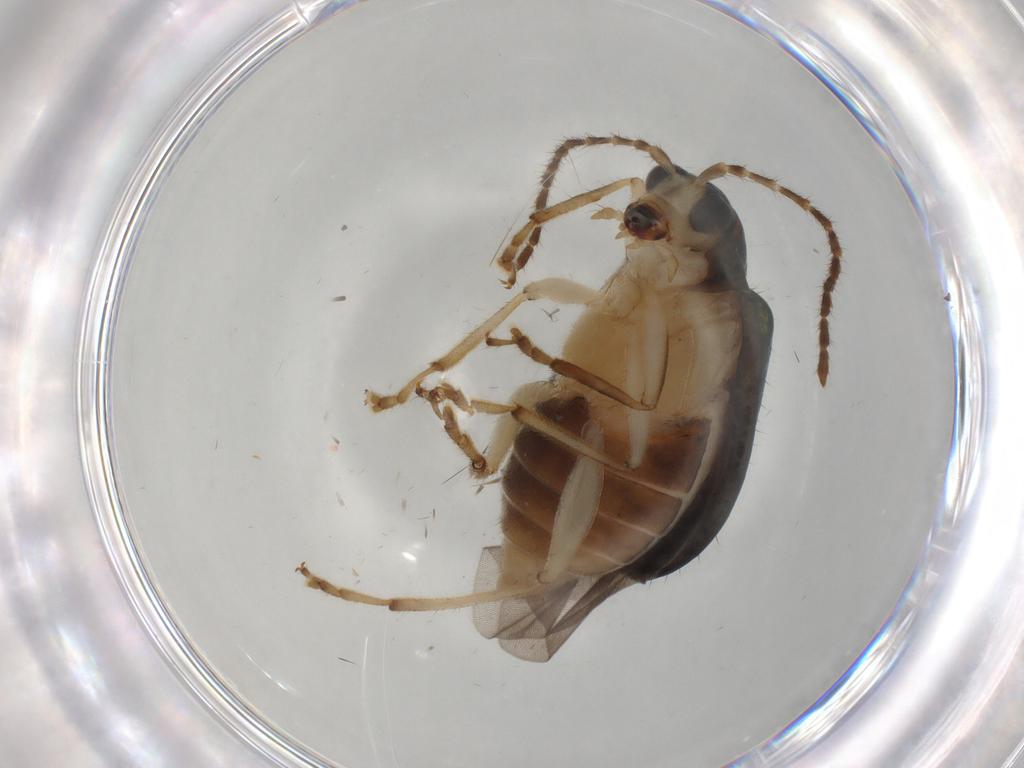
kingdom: Animalia
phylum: Arthropoda
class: Insecta
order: Coleoptera
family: Chrysomelidae
